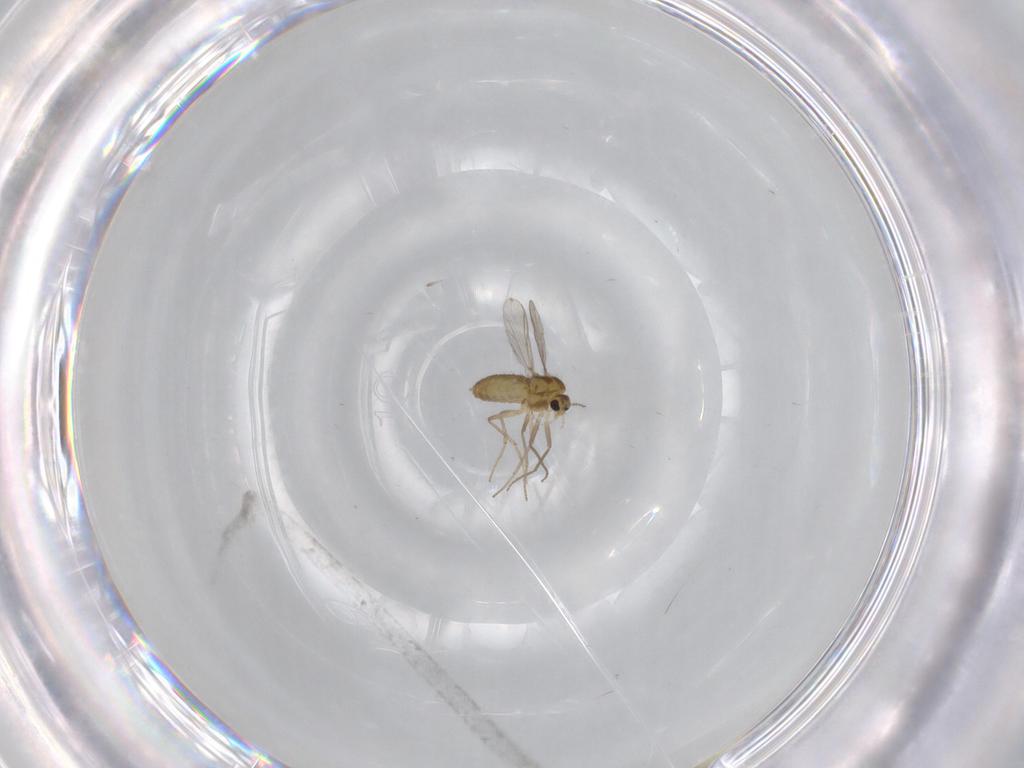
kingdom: Animalia
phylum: Arthropoda
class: Insecta
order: Diptera
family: Chironomidae
